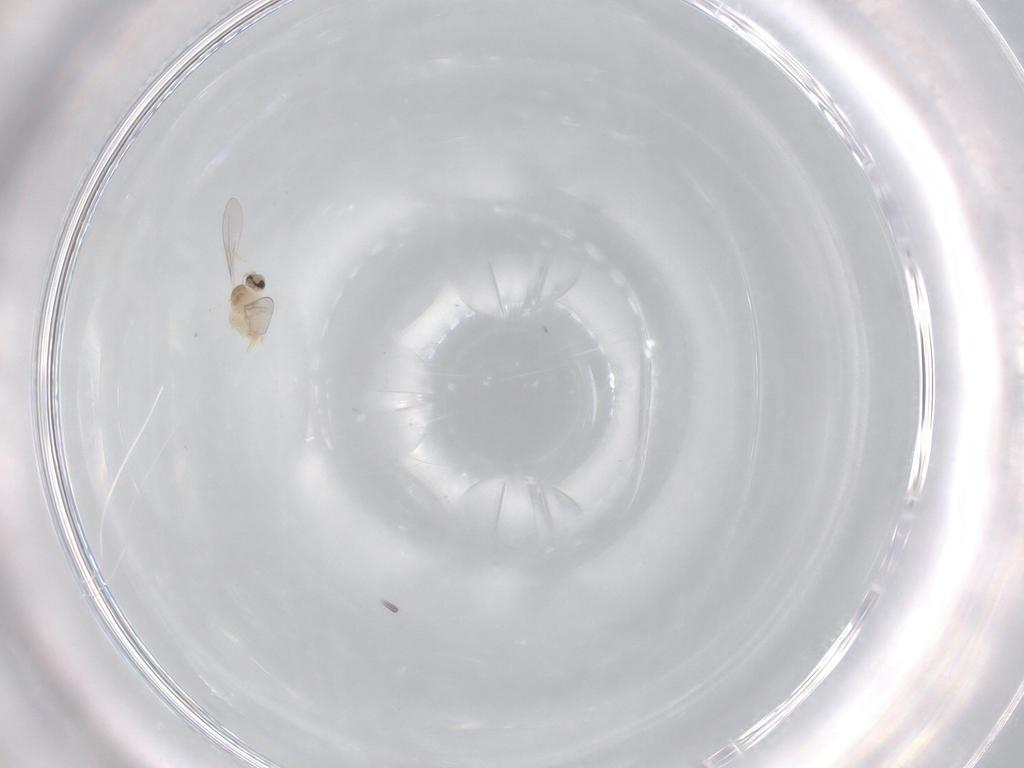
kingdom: Animalia
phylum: Arthropoda
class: Insecta
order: Diptera
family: Cecidomyiidae
